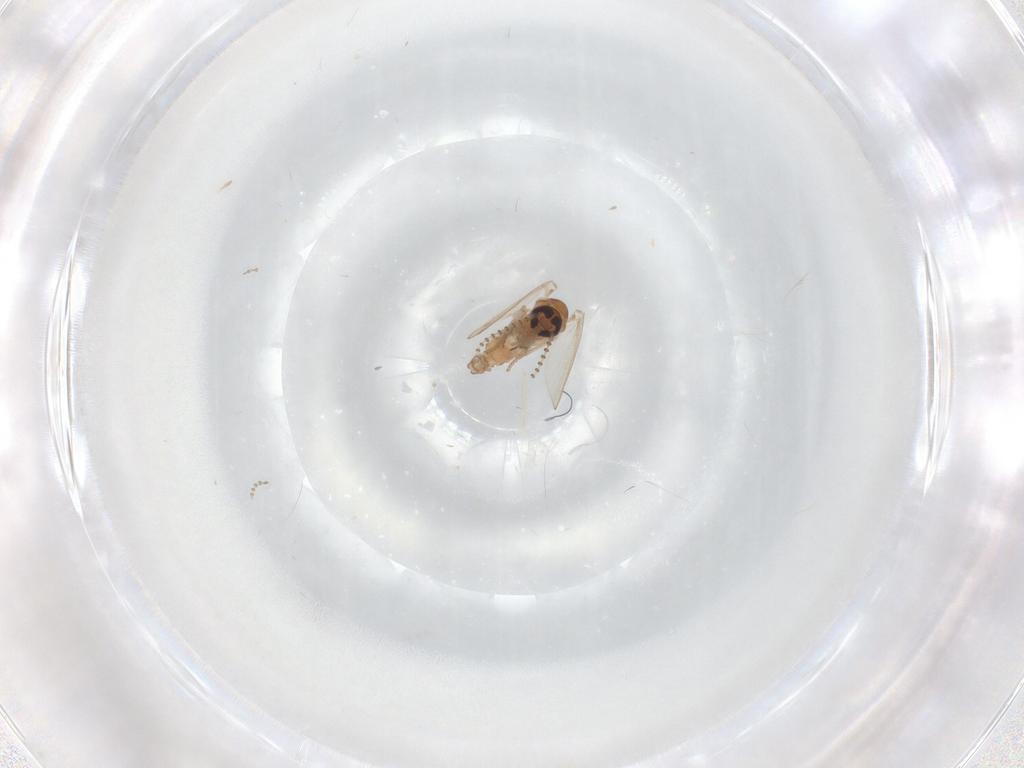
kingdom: Animalia
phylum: Arthropoda
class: Insecta
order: Diptera
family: Cecidomyiidae
